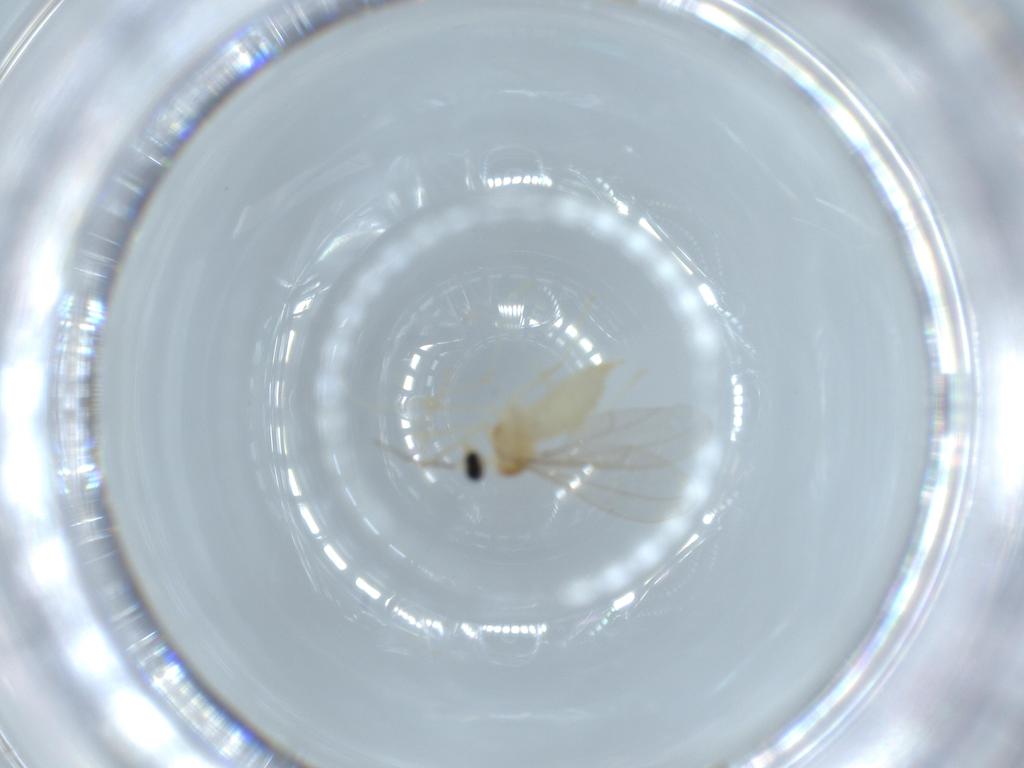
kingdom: Animalia
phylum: Arthropoda
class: Insecta
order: Diptera
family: Cecidomyiidae
